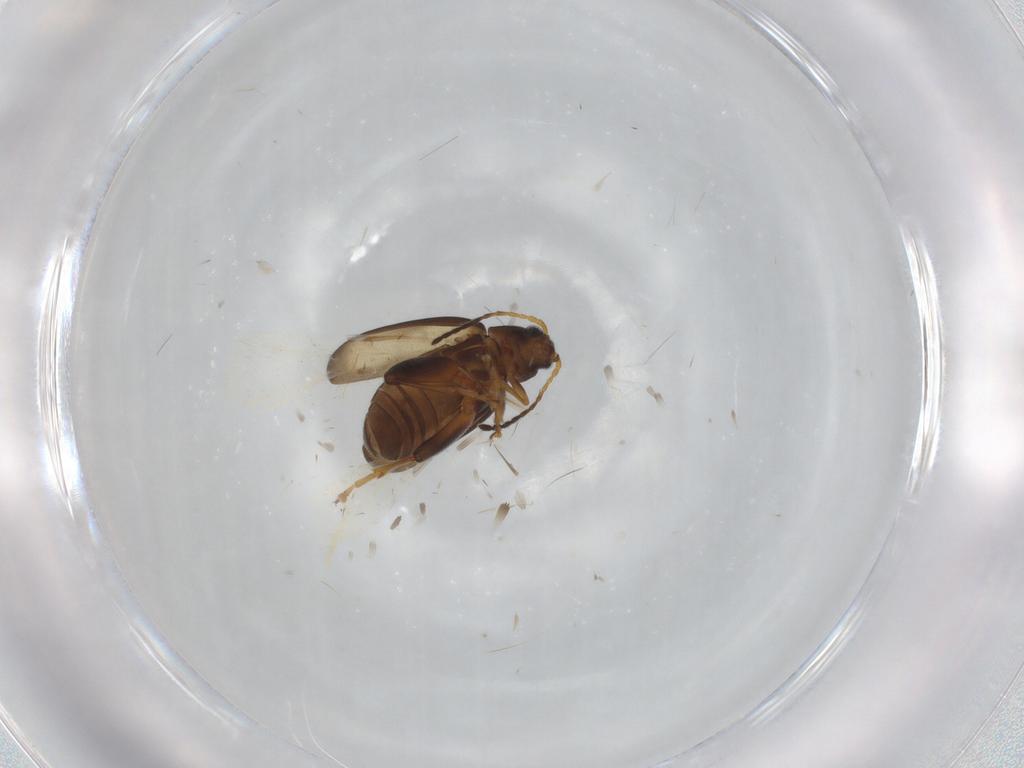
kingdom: Animalia
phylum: Arthropoda
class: Insecta
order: Coleoptera
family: Chrysomelidae
